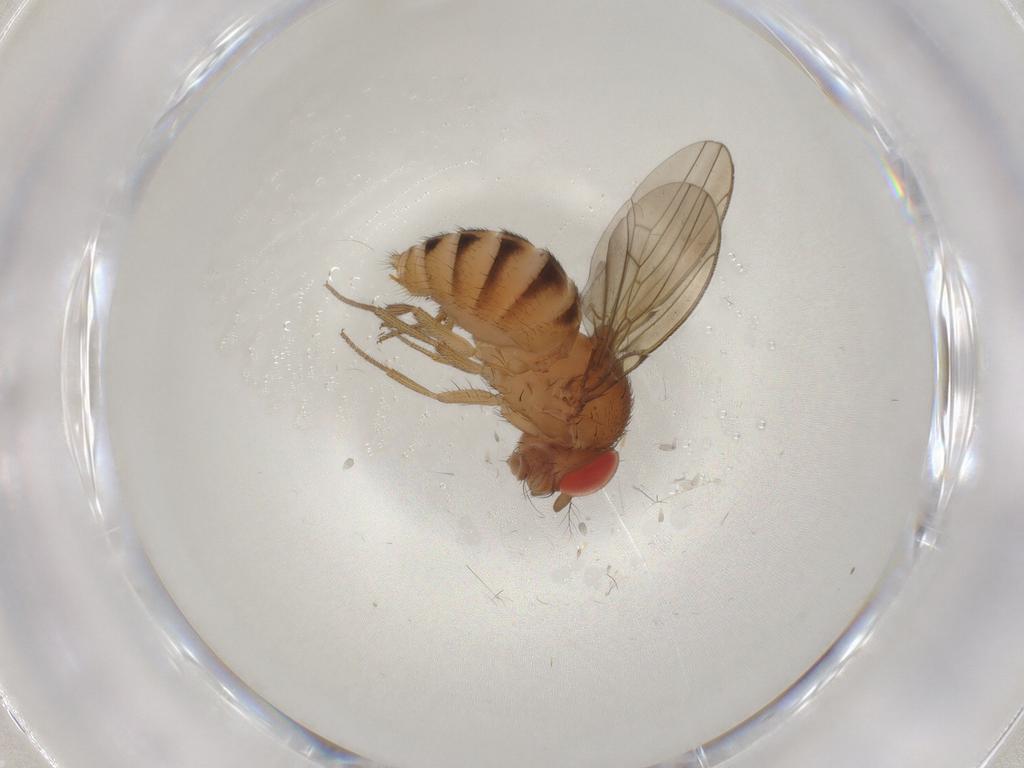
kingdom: Animalia
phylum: Arthropoda
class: Insecta
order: Diptera
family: Drosophilidae
